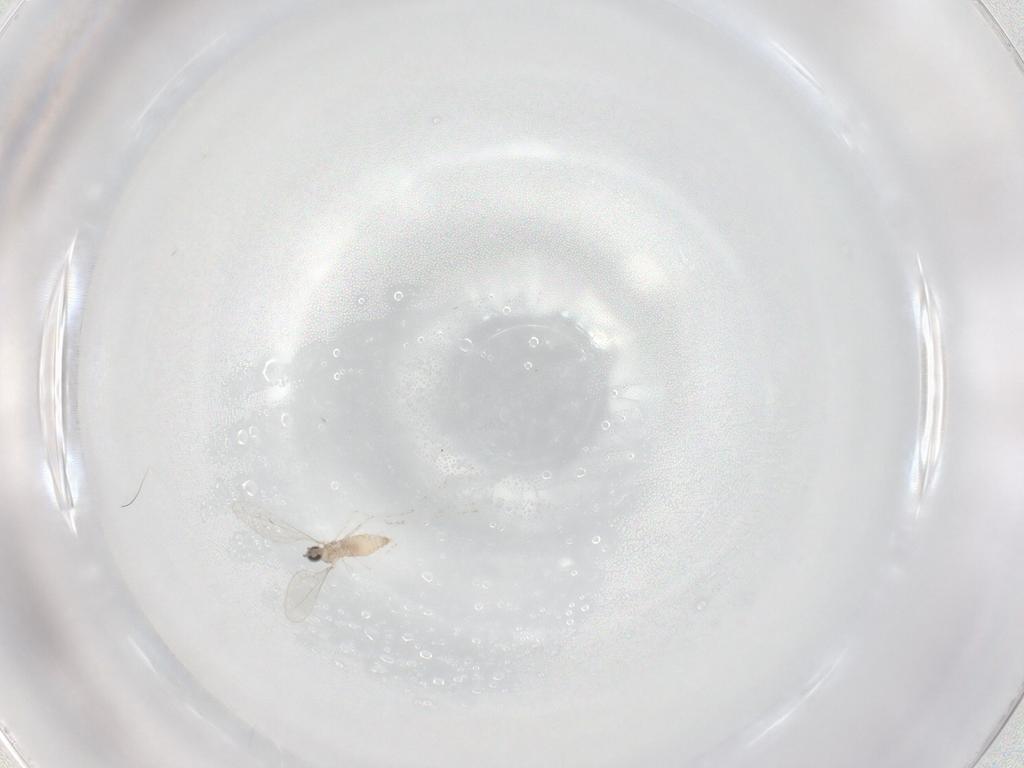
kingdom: Animalia
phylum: Arthropoda
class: Insecta
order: Diptera
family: Cecidomyiidae
